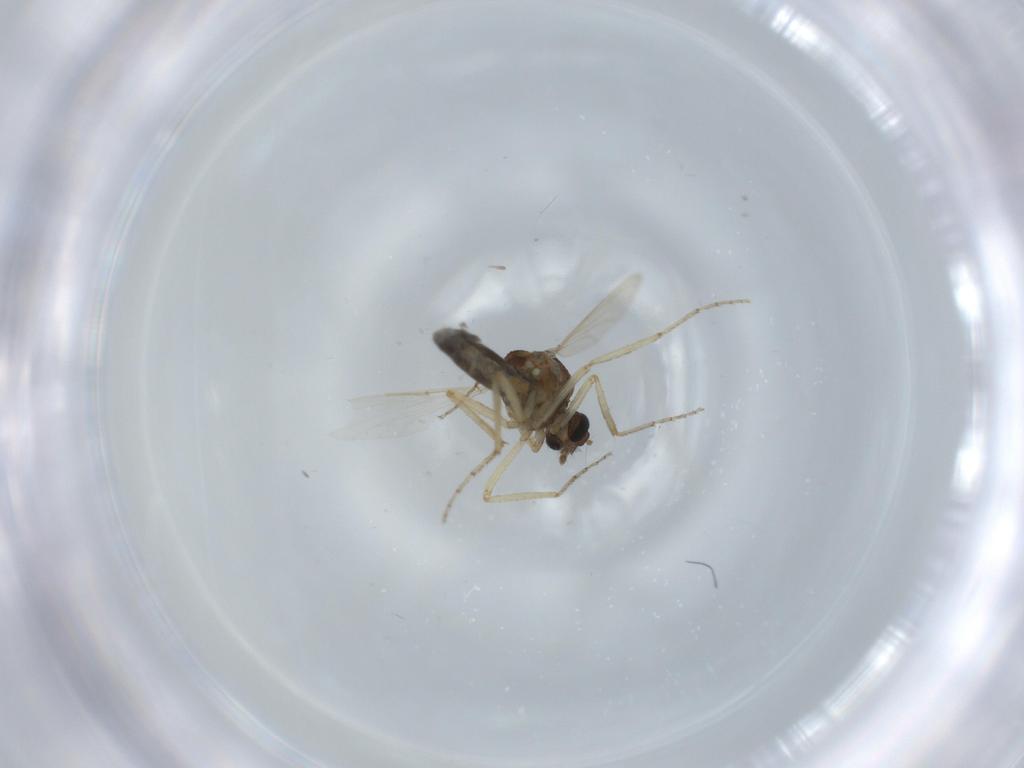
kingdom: Animalia
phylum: Arthropoda
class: Insecta
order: Diptera
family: Ceratopogonidae
